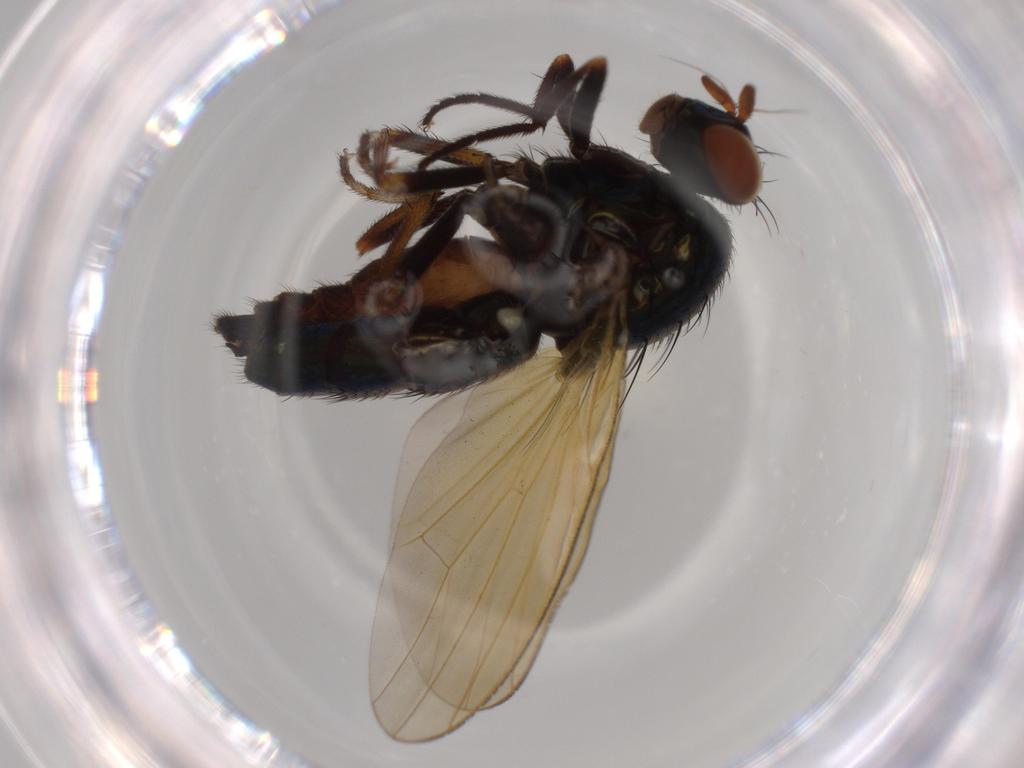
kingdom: Animalia
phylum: Arthropoda
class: Insecta
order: Diptera
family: Lauxaniidae
